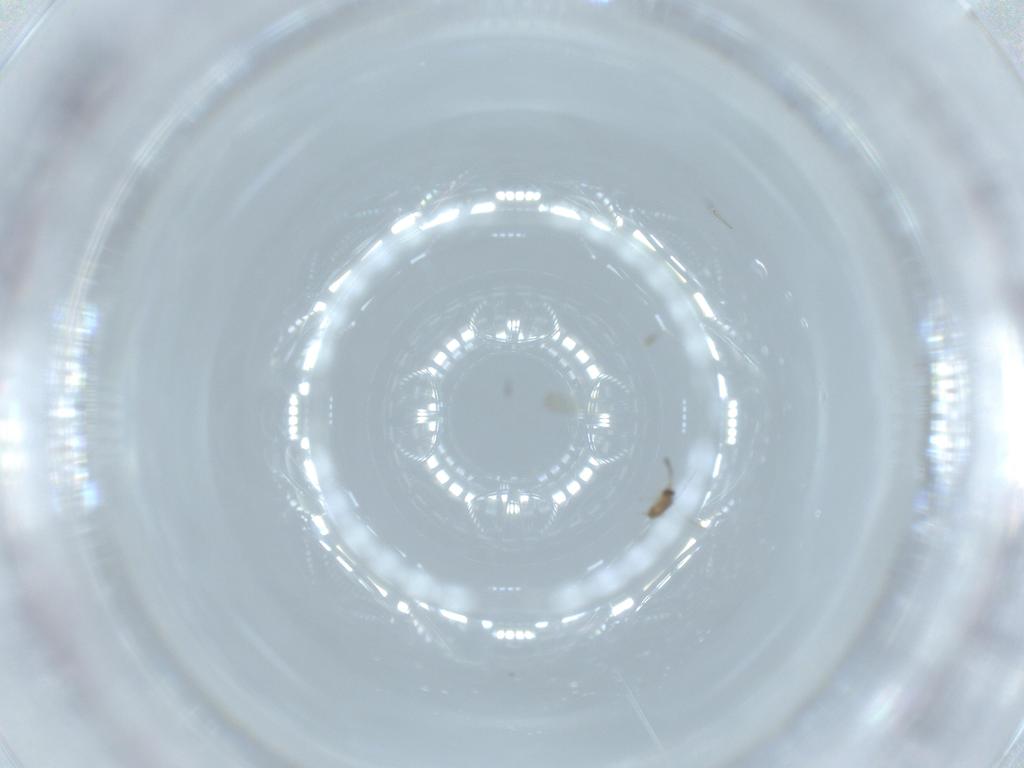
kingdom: Animalia
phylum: Arthropoda
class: Insecta
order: Hymenoptera
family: Mymaridae
